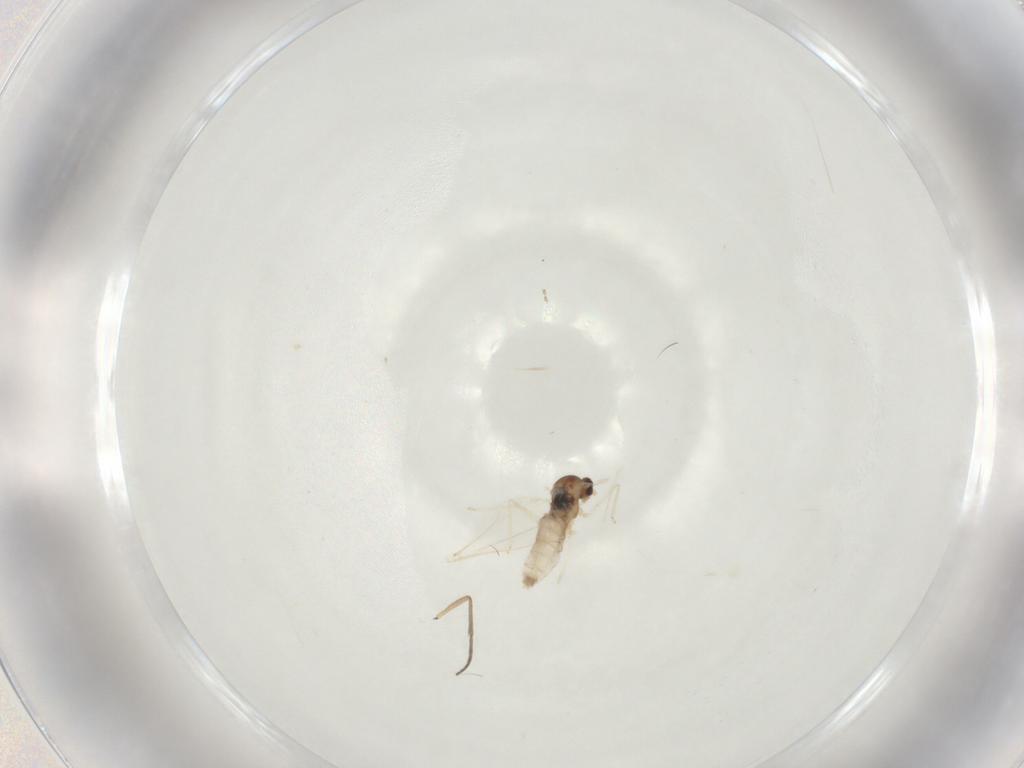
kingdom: Animalia
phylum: Arthropoda
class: Insecta
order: Diptera
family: Cecidomyiidae
